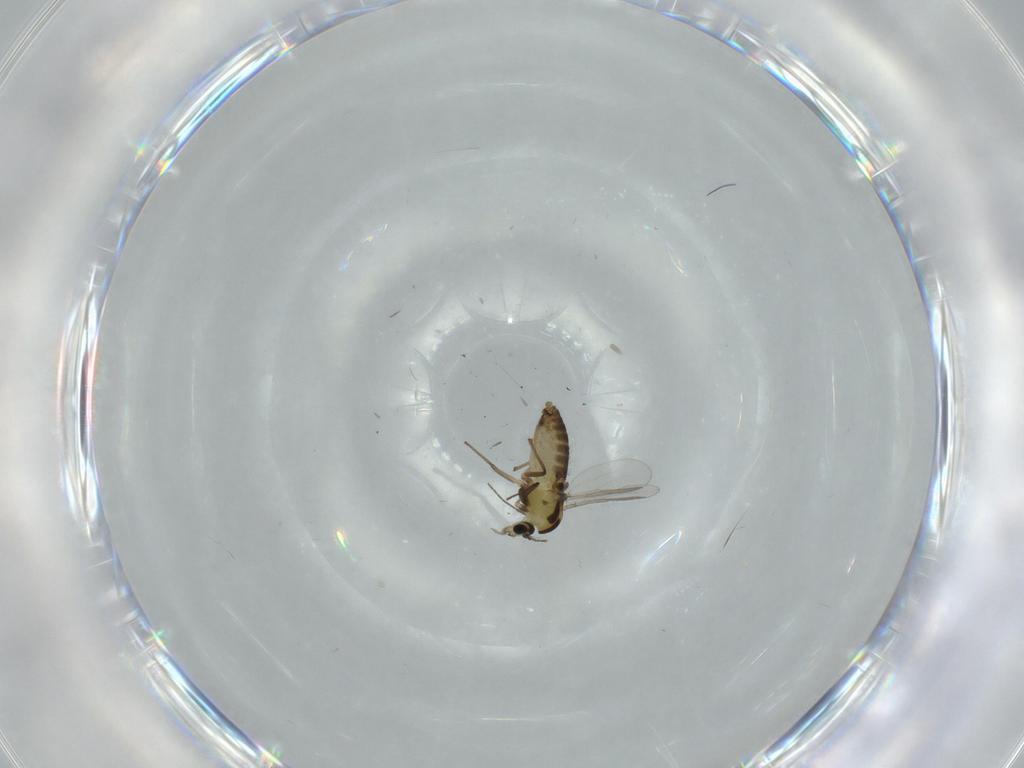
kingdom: Animalia
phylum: Arthropoda
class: Insecta
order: Diptera
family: Chironomidae
